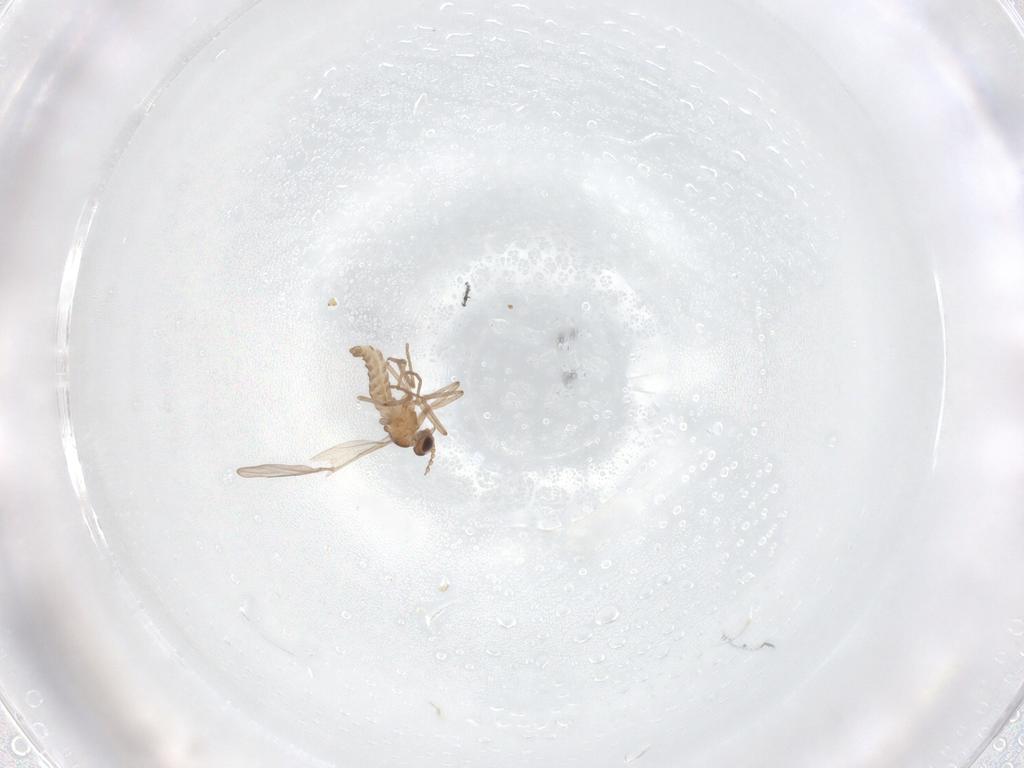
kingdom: Animalia
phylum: Arthropoda
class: Insecta
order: Diptera
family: Cecidomyiidae
